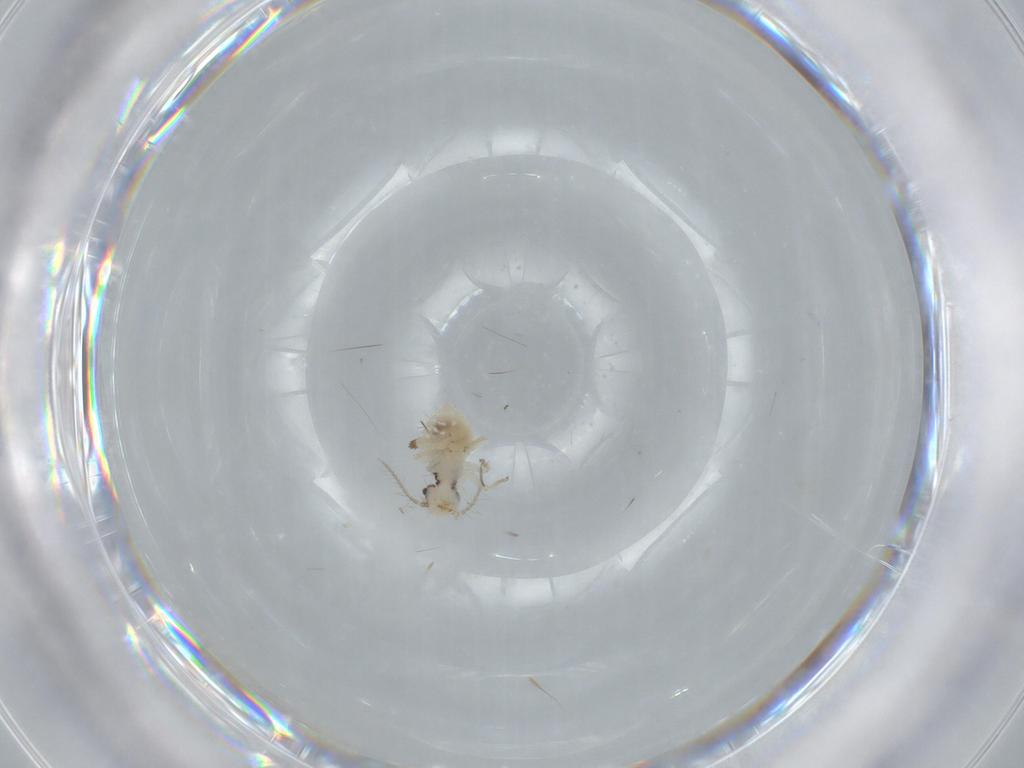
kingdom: Animalia
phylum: Arthropoda
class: Insecta
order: Psocodea
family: Pseudocaeciliidae
